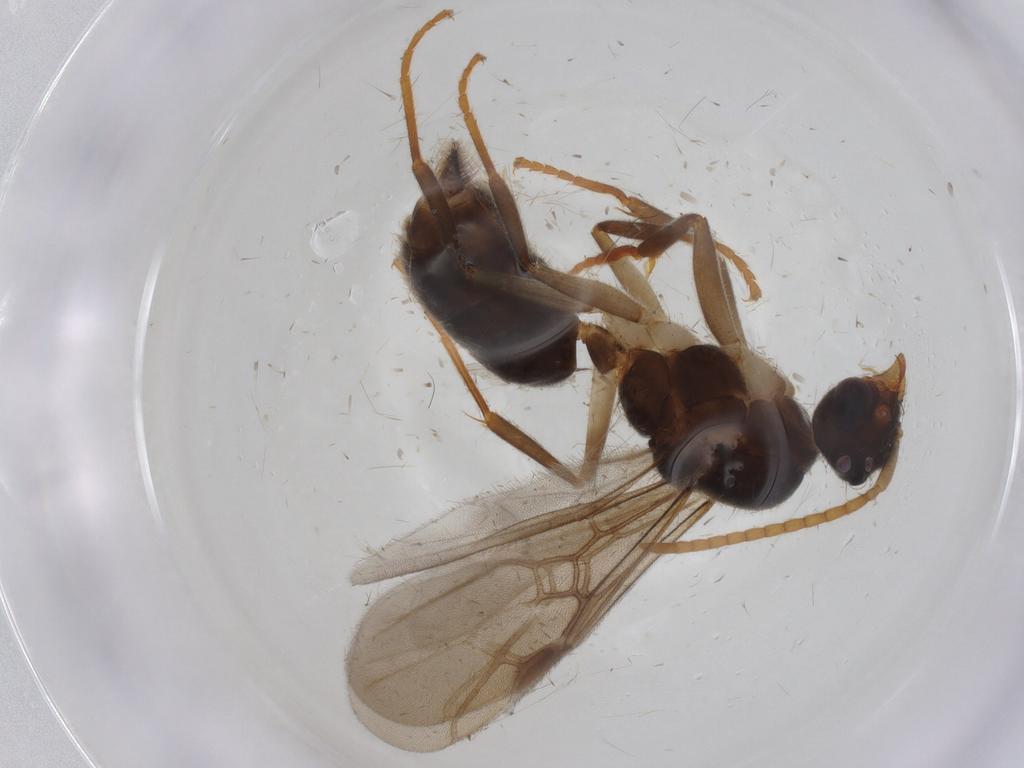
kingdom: Animalia
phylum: Arthropoda
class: Insecta
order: Hymenoptera
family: Formicidae
